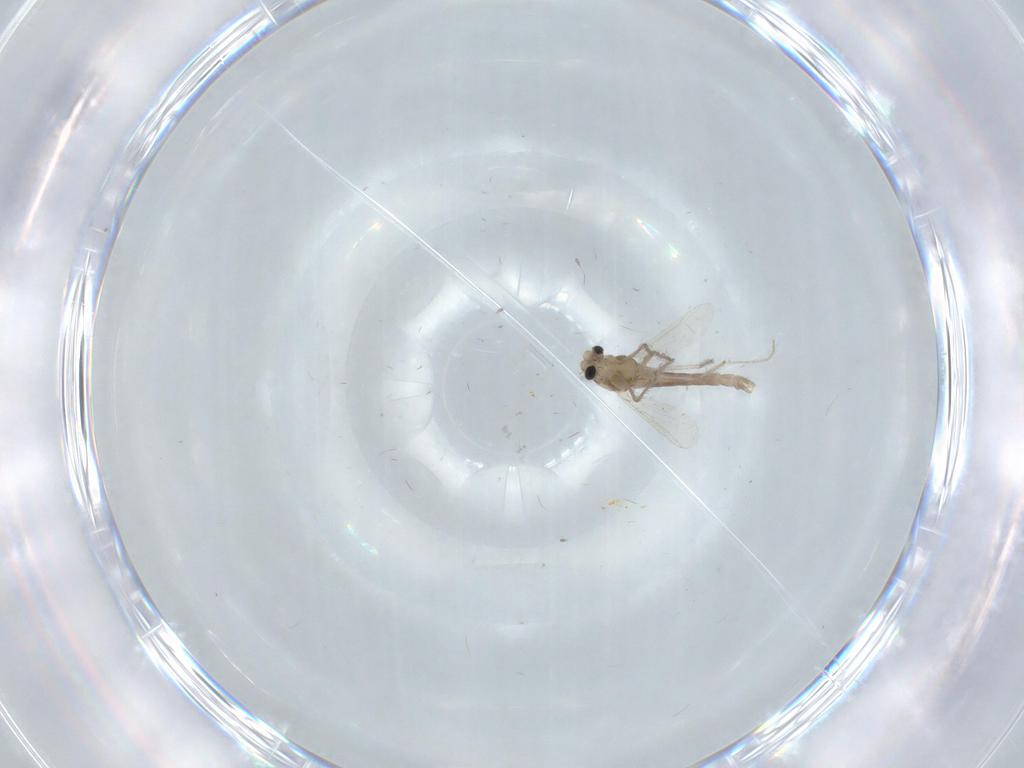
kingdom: Animalia
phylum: Arthropoda
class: Insecta
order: Diptera
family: Chironomidae
